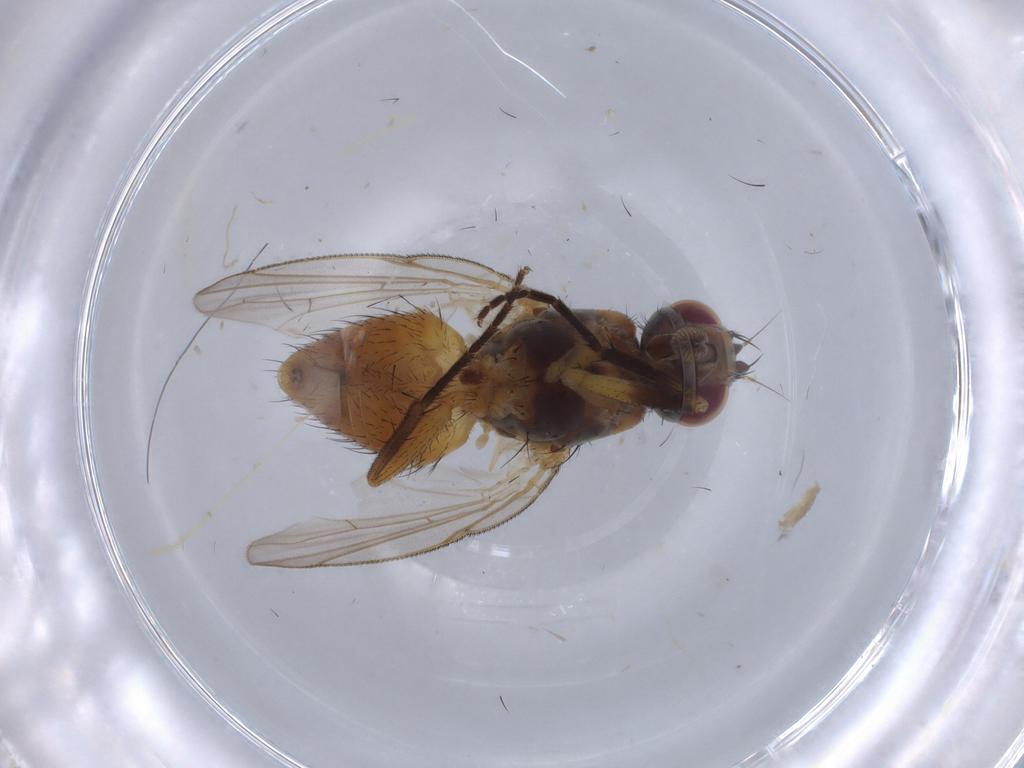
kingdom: Animalia
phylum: Arthropoda
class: Insecta
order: Diptera
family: Muscidae
